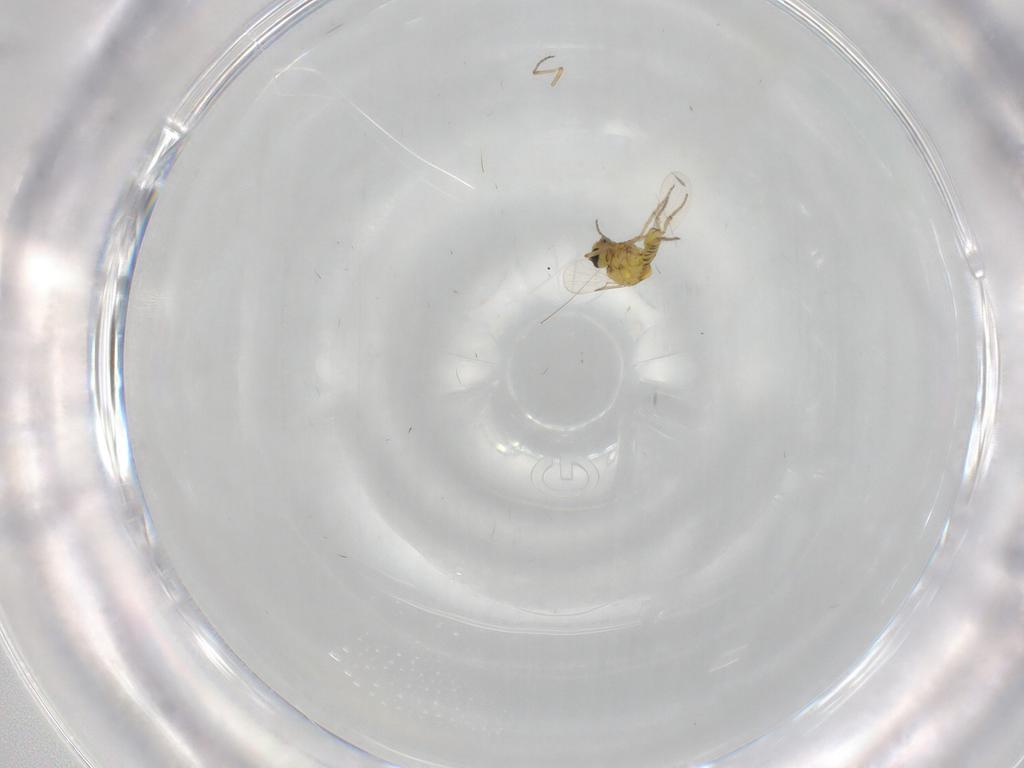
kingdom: Animalia
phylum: Arthropoda
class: Insecta
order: Diptera
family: Ceratopogonidae
